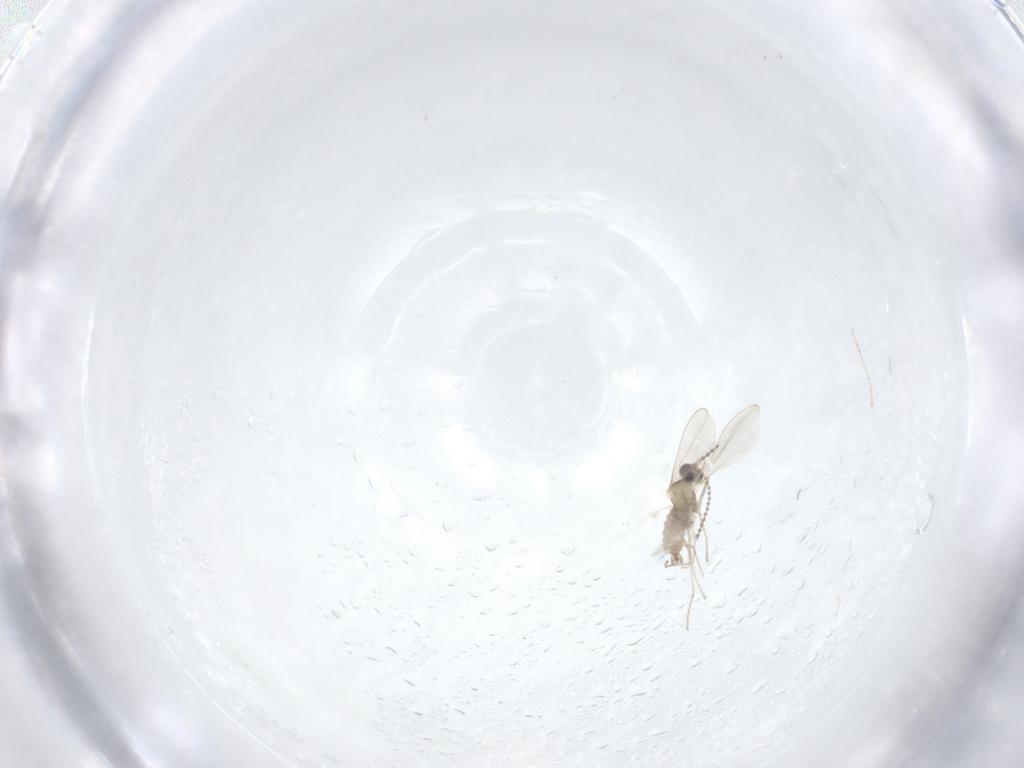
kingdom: Animalia
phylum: Arthropoda
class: Insecta
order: Diptera
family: Cecidomyiidae
